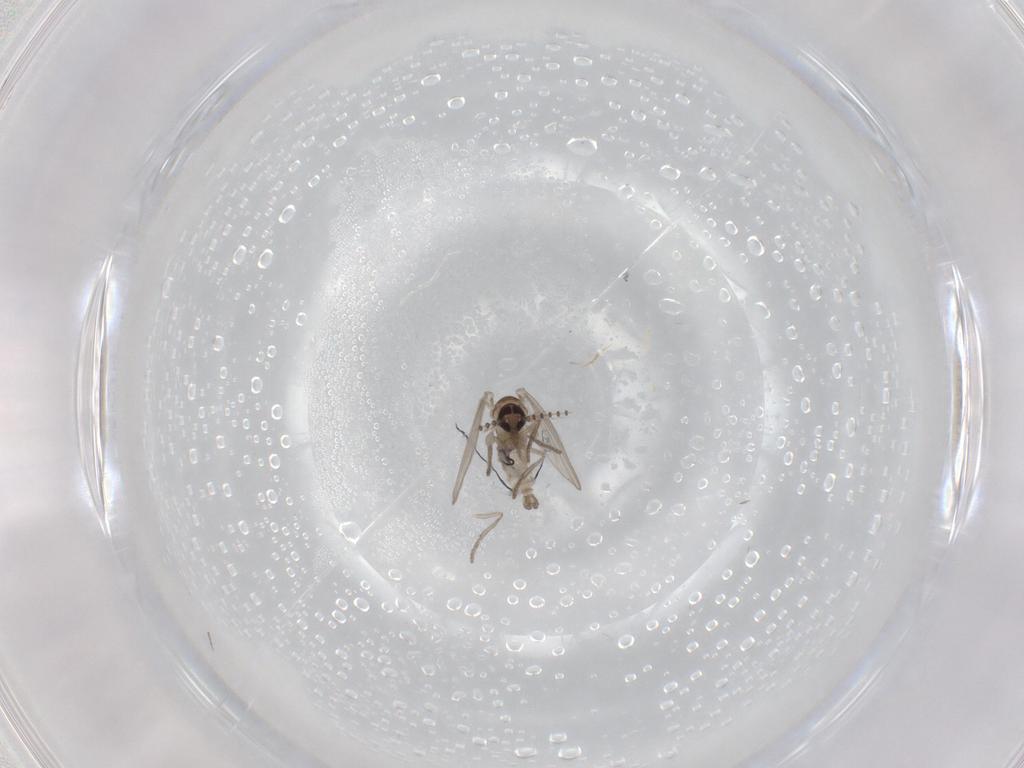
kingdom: Animalia
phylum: Arthropoda
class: Insecta
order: Diptera
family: Psychodidae
